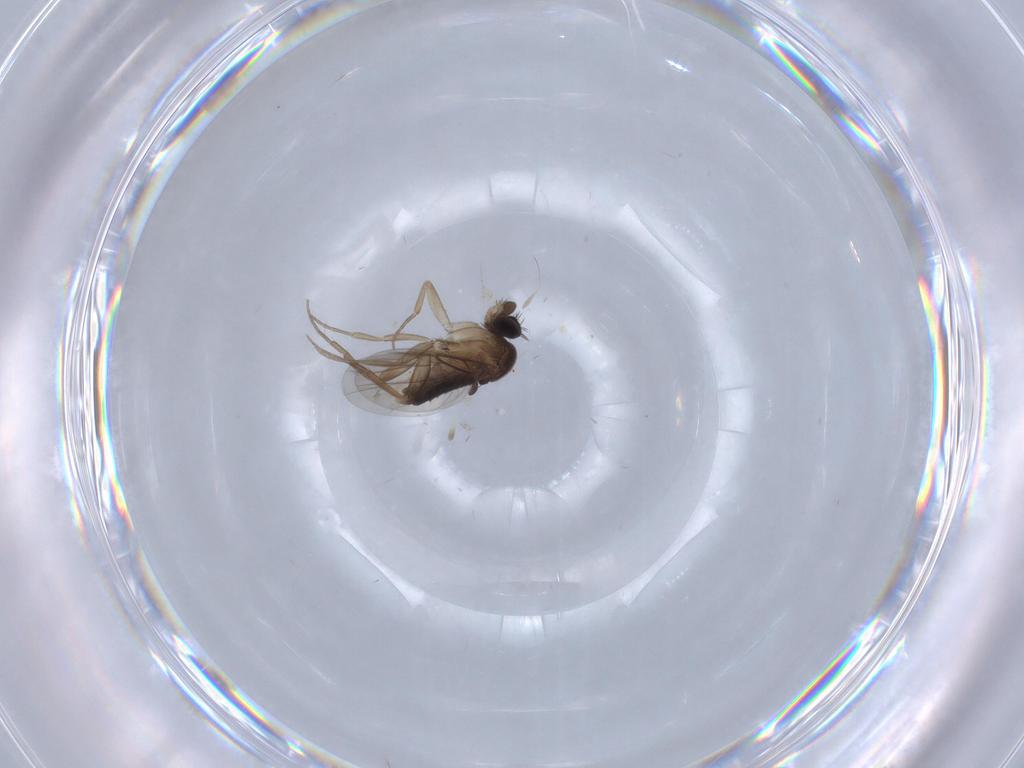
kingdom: Animalia
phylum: Arthropoda
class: Insecta
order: Diptera
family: Phoridae
